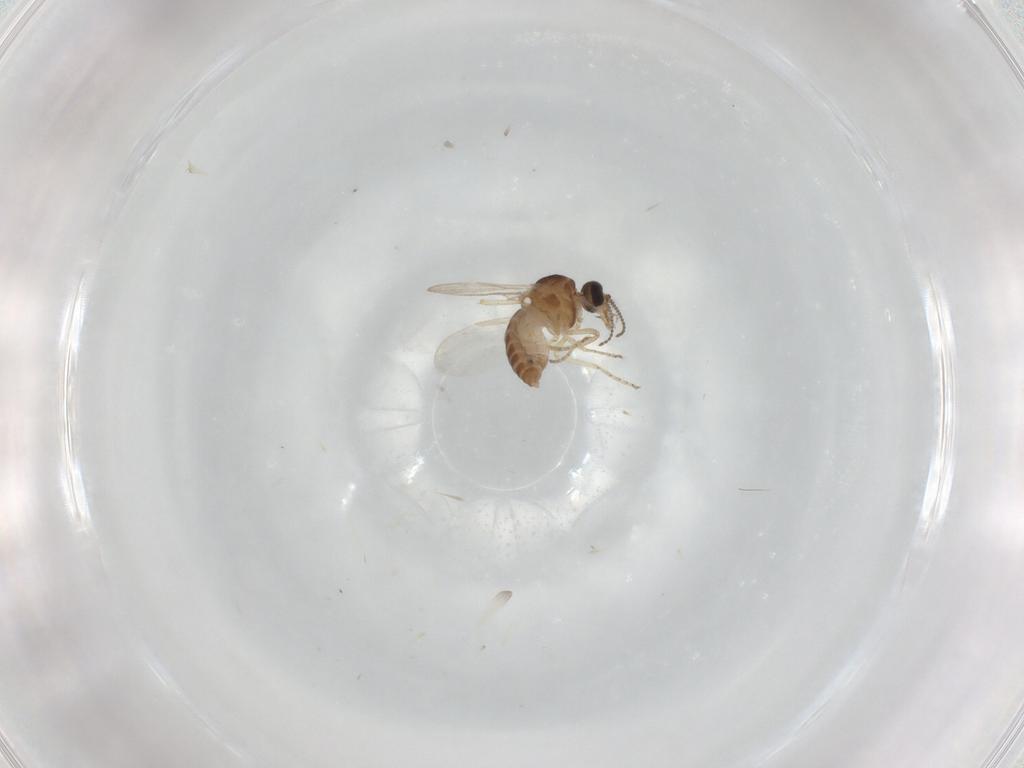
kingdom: Animalia
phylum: Arthropoda
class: Insecta
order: Diptera
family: Ceratopogonidae
